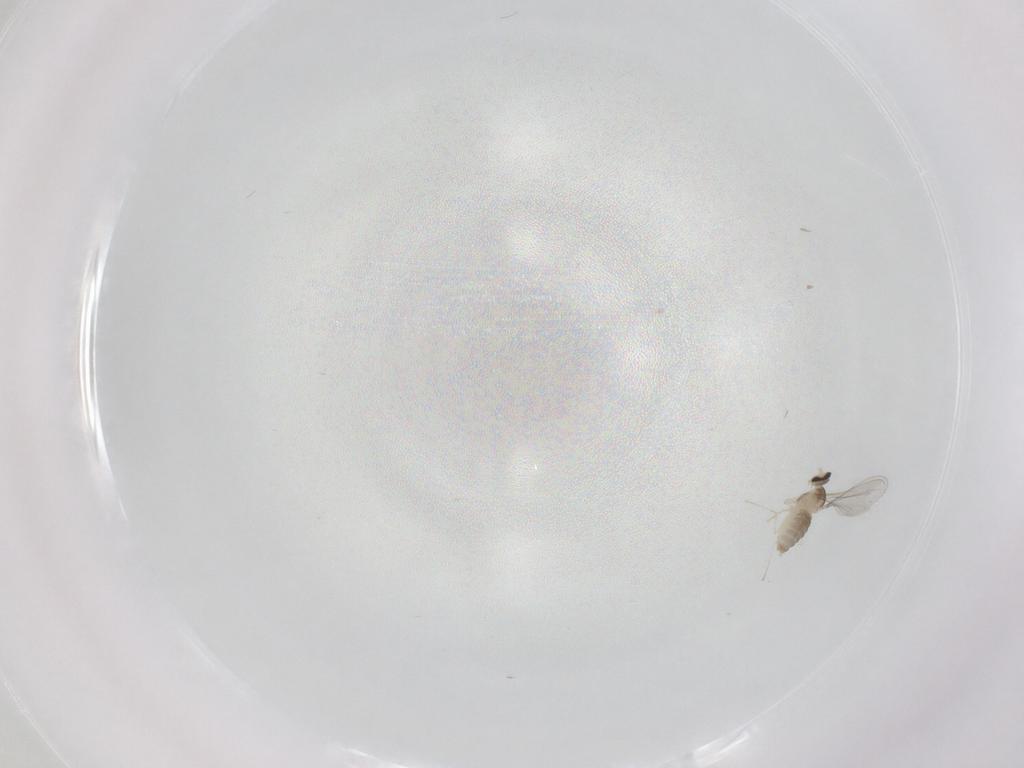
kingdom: Animalia
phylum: Arthropoda
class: Insecta
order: Diptera
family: Cecidomyiidae
